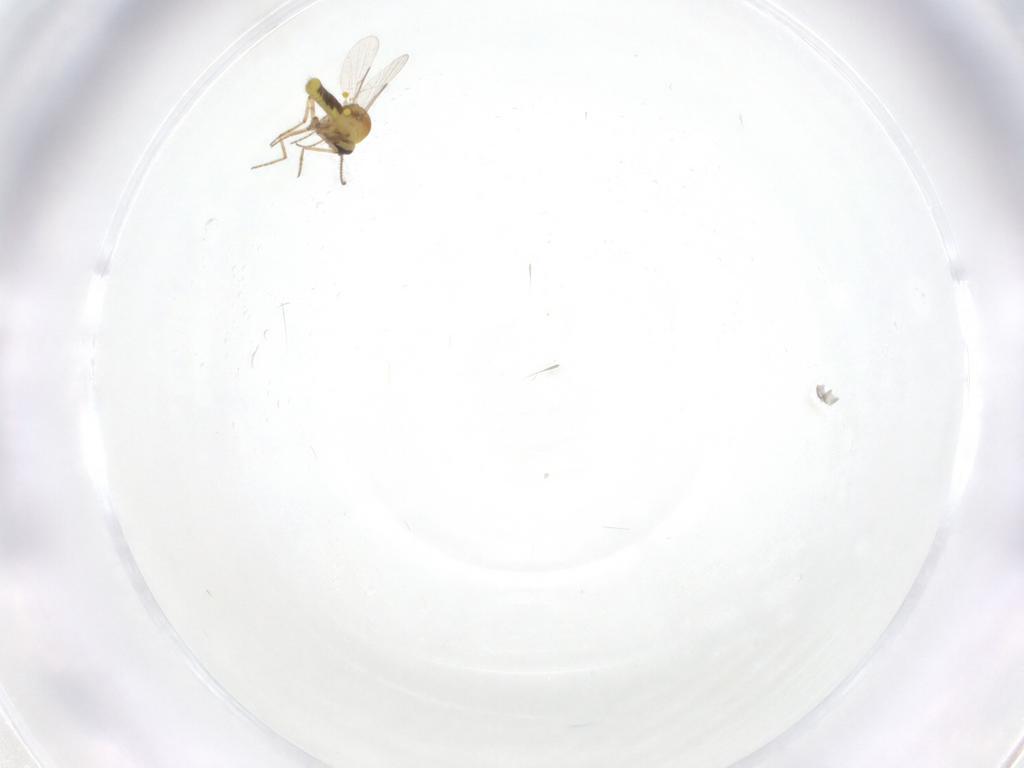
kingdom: Animalia
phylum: Arthropoda
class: Insecta
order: Diptera
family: Ceratopogonidae
